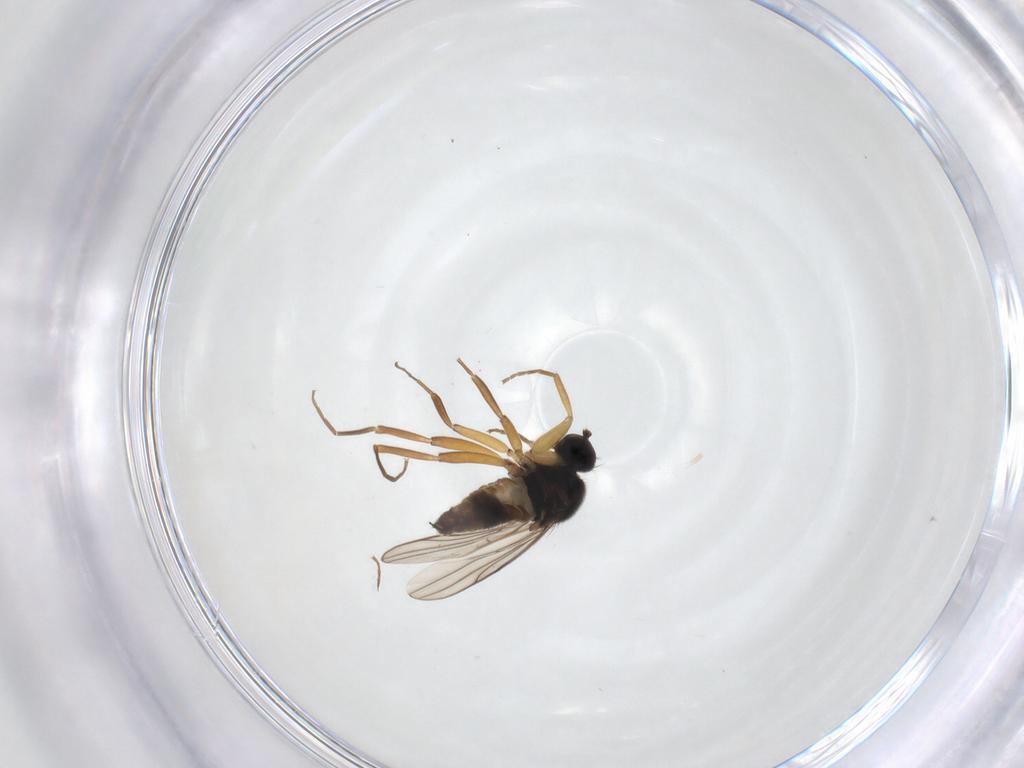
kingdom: Animalia
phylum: Arthropoda
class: Insecta
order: Diptera
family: Hybotidae
